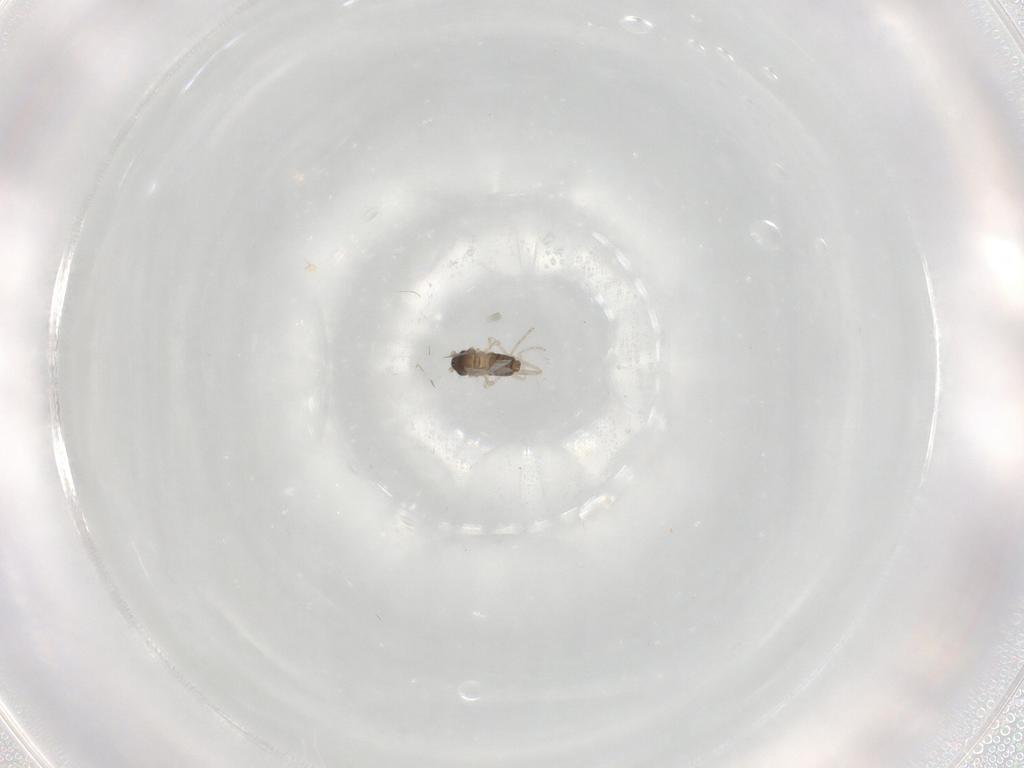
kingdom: Animalia
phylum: Arthropoda
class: Insecta
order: Diptera
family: Cecidomyiidae
